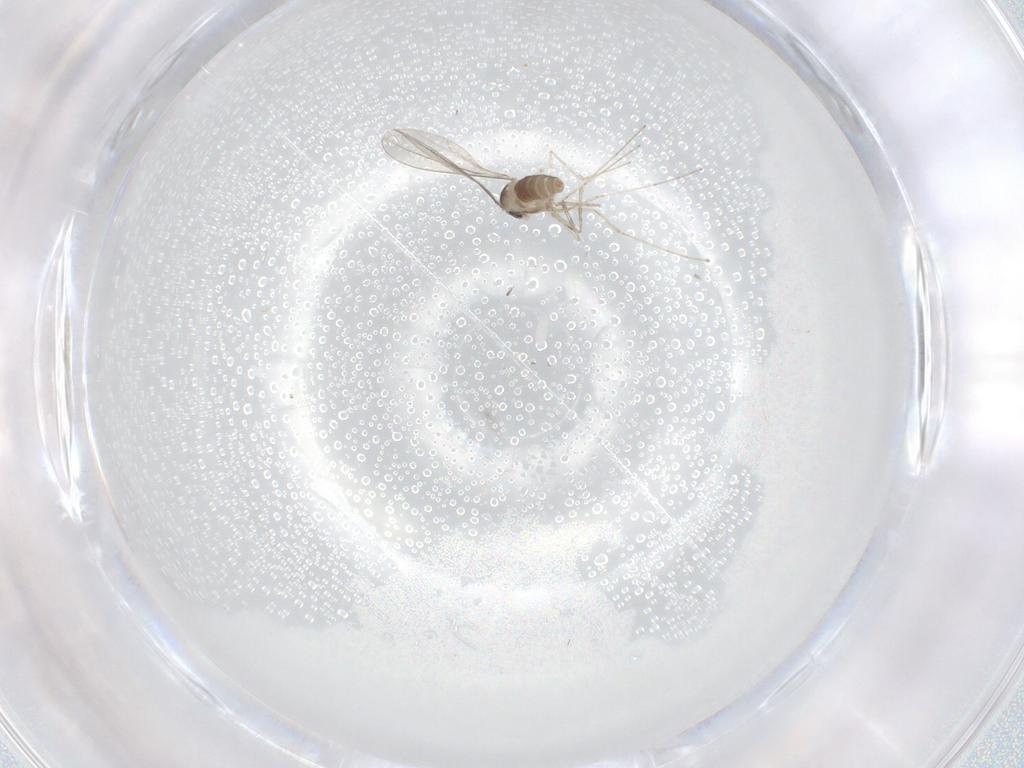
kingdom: Animalia
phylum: Arthropoda
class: Insecta
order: Diptera
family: Cecidomyiidae
